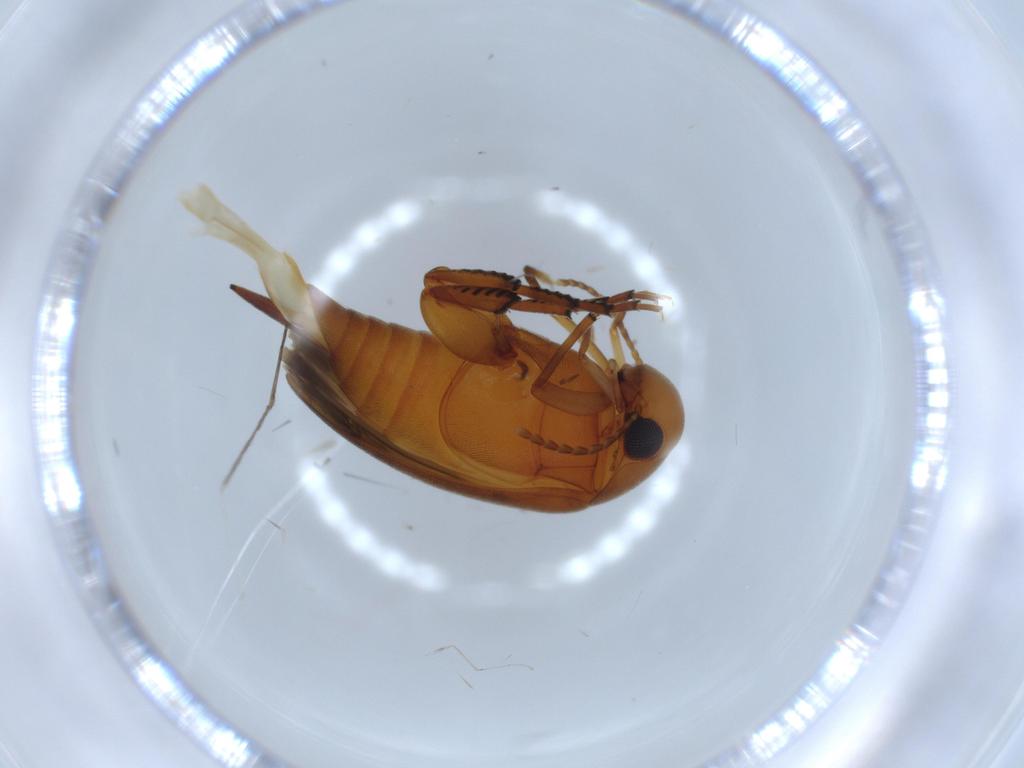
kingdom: Animalia
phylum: Arthropoda
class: Insecta
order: Coleoptera
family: Mordellidae
